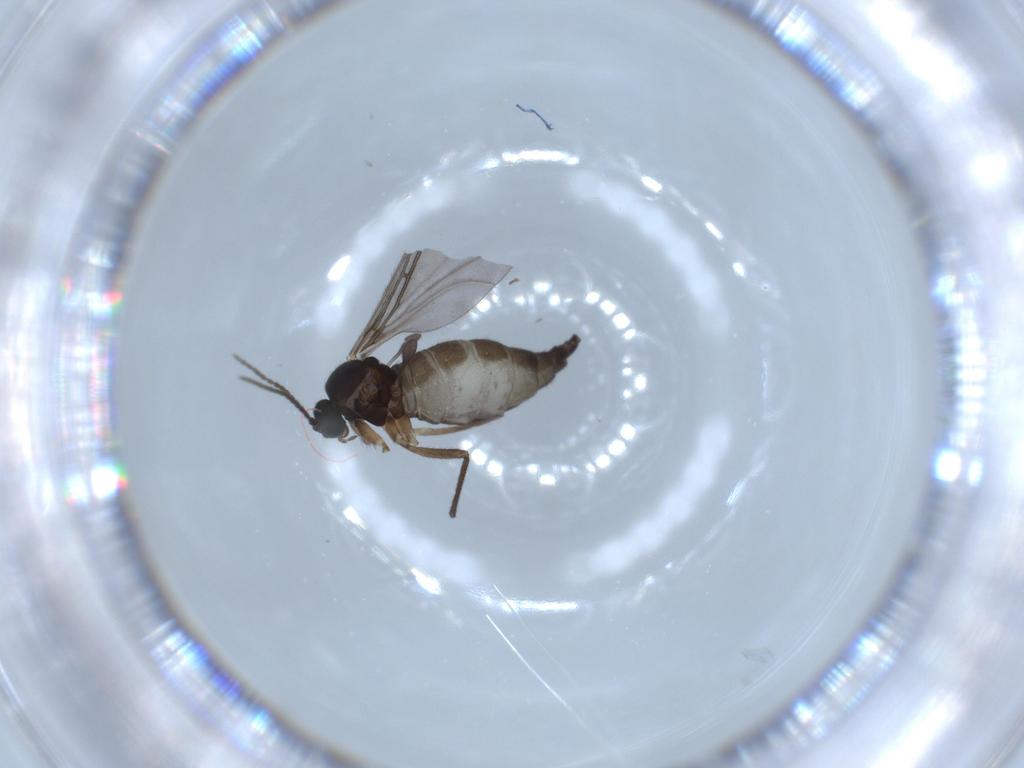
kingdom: Animalia
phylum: Arthropoda
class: Insecta
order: Diptera
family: Sciaridae
